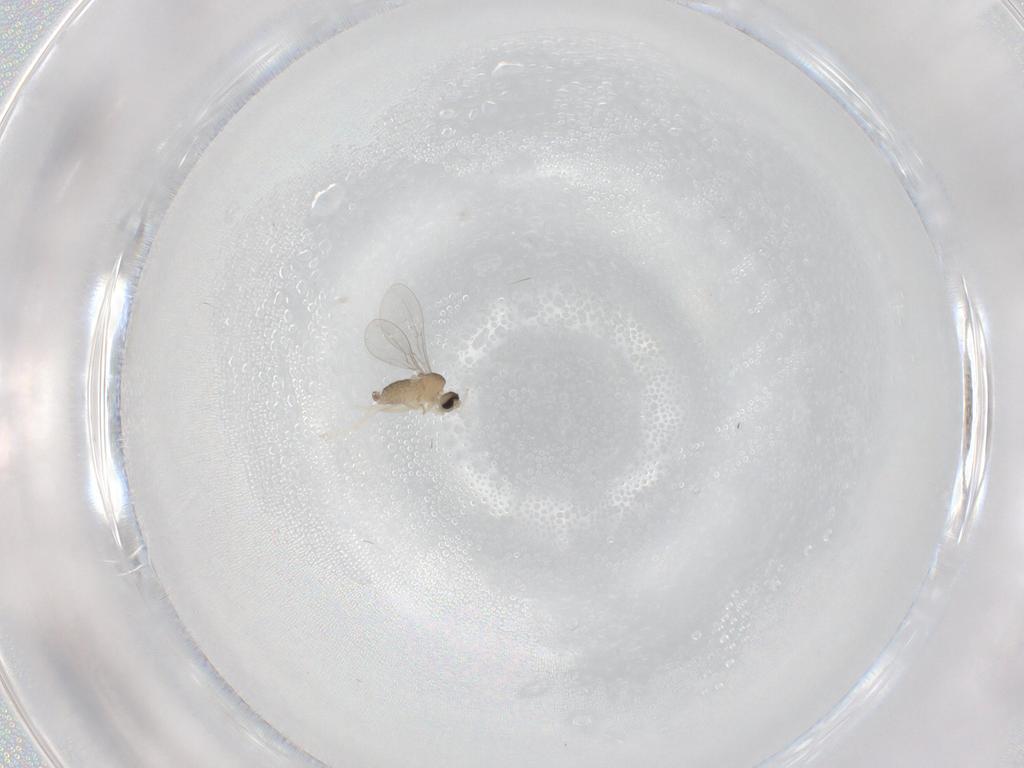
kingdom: Animalia
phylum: Arthropoda
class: Insecta
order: Diptera
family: Cecidomyiidae
